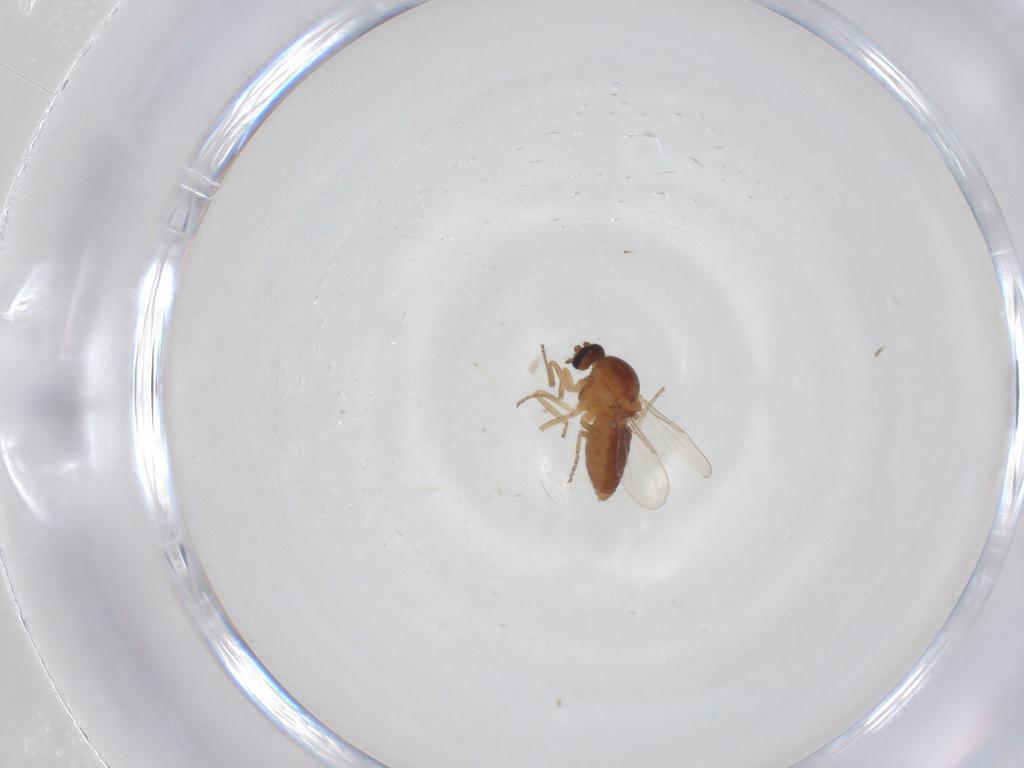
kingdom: Animalia
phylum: Arthropoda
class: Insecta
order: Diptera
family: Ceratopogonidae
